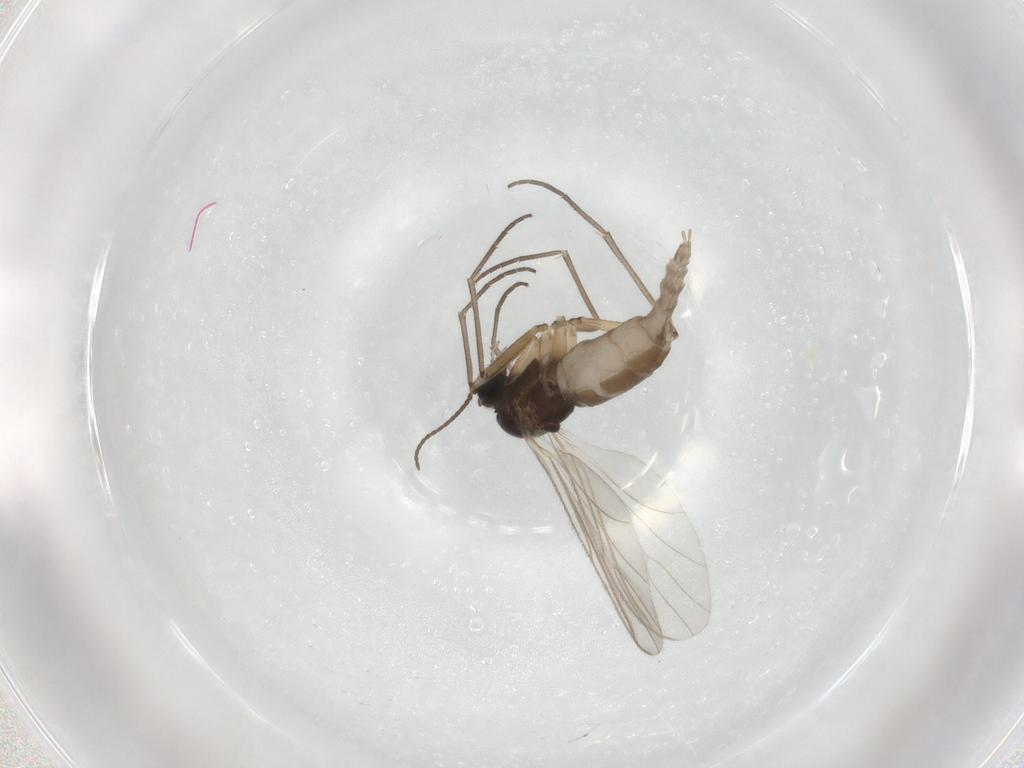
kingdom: Animalia
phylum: Arthropoda
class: Insecta
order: Diptera
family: Sciaridae
